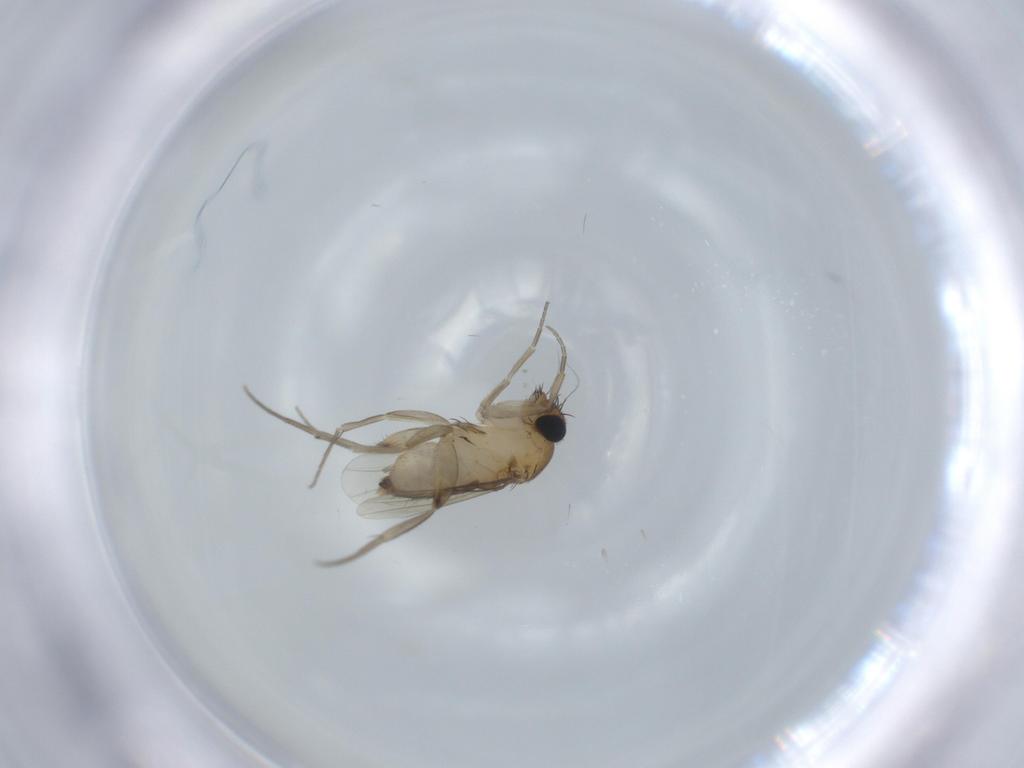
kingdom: Animalia
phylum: Arthropoda
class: Insecta
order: Diptera
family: Phoridae
